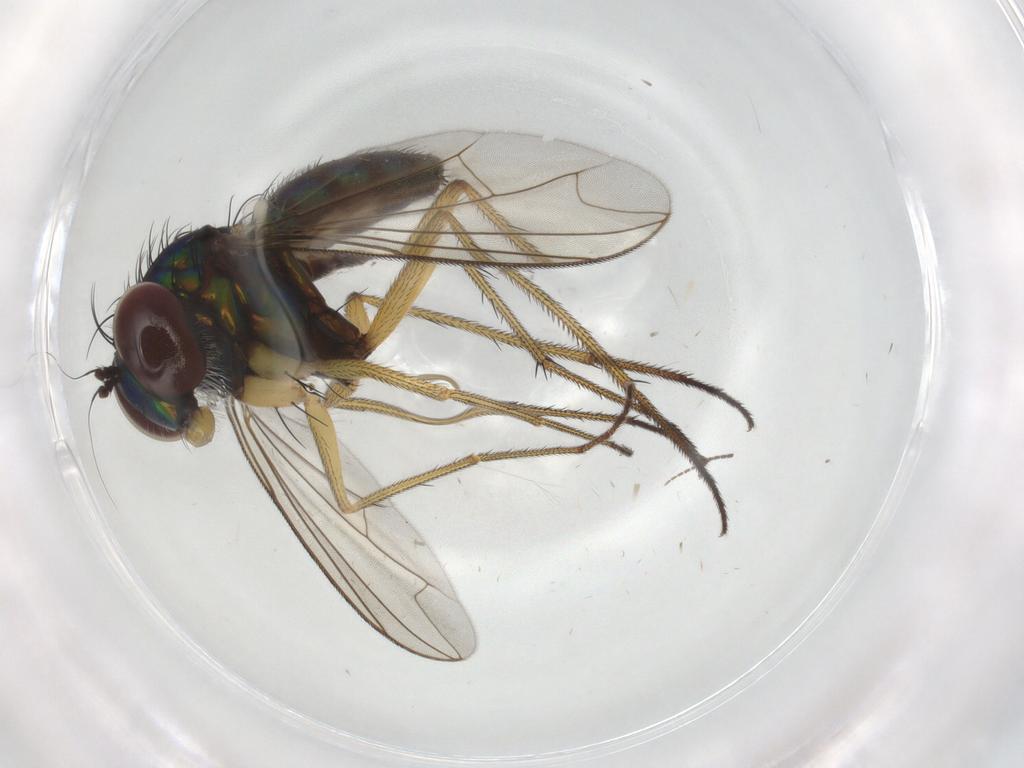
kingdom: Animalia
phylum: Arthropoda
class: Insecta
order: Diptera
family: Dolichopodidae
